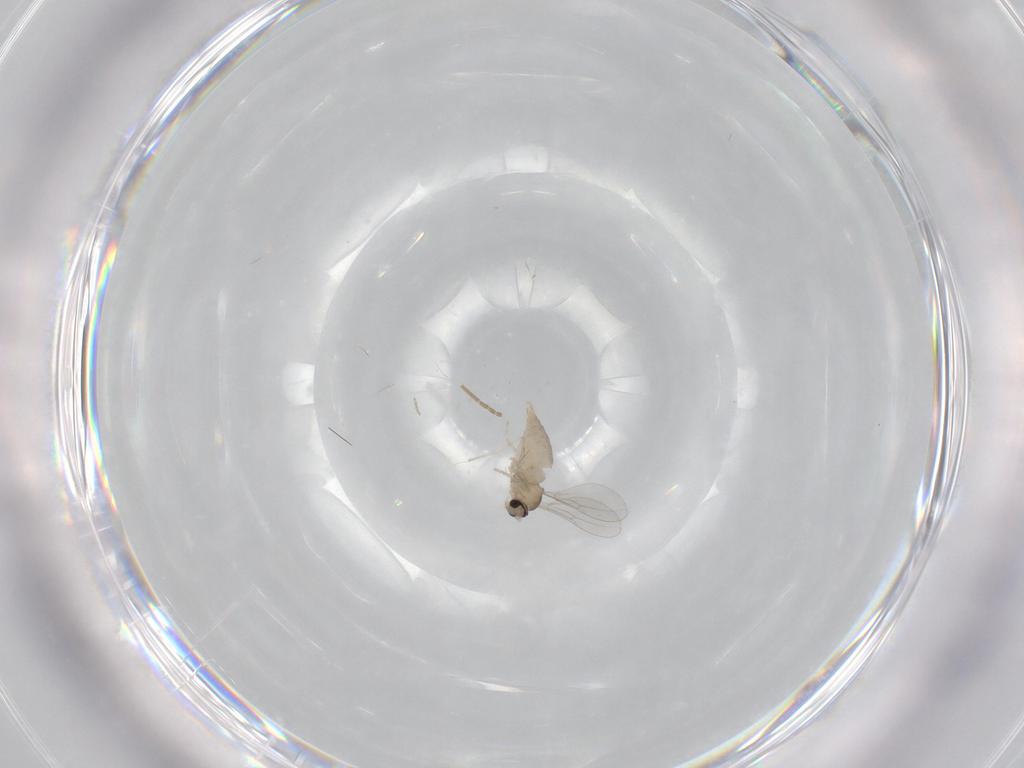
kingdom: Animalia
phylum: Arthropoda
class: Insecta
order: Diptera
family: Cecidomyiidae
